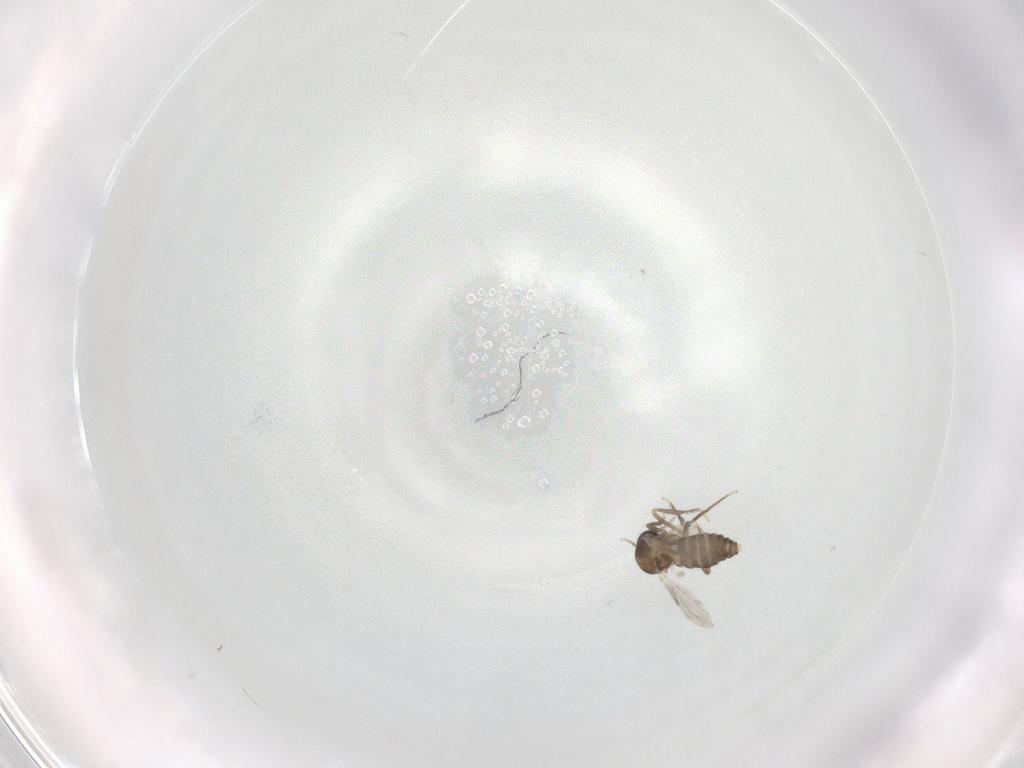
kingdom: Animalia
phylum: Arthropoda
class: Insecta
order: Diptera
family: Ceratopogonidae
